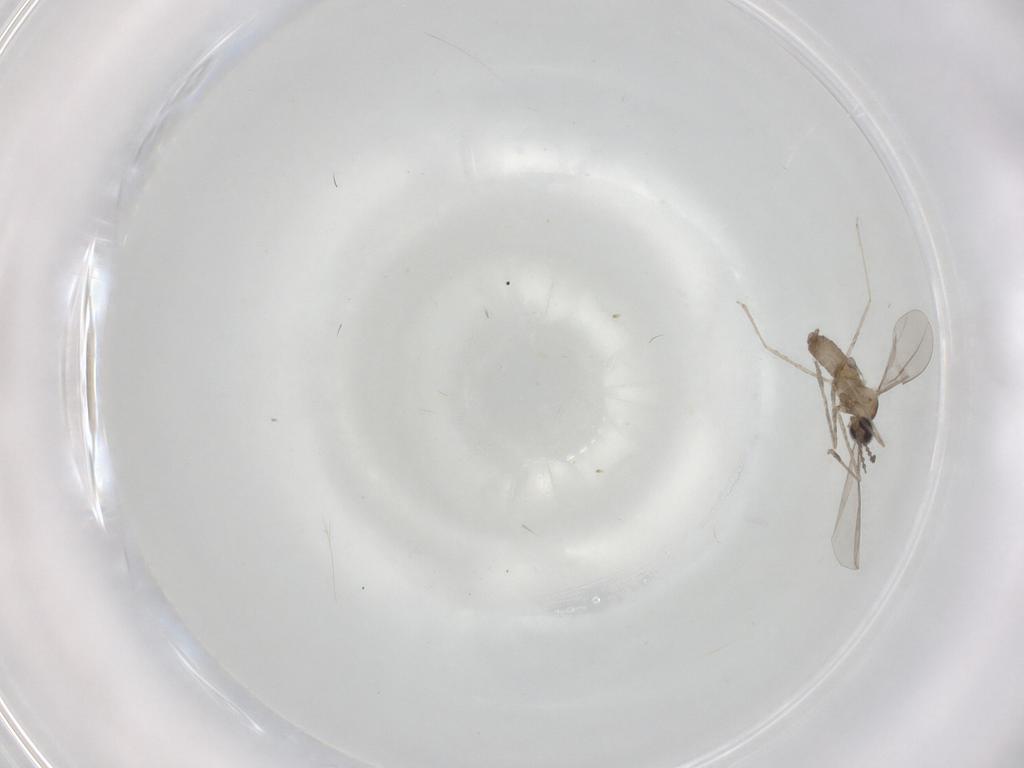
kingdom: Animalia
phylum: Arthropoda
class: Insecta
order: Diptera
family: Cecidomyiidae
